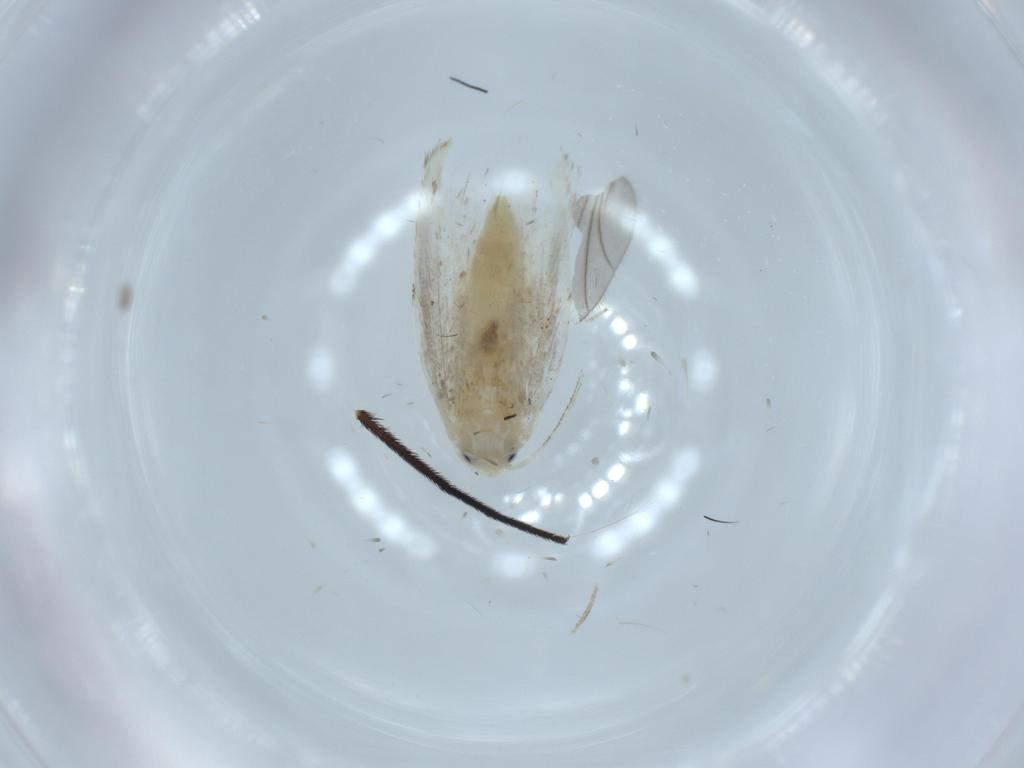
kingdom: Animalia
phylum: Arthropoda
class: Insecta
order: Lepidoptera
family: Lyonetiidae
